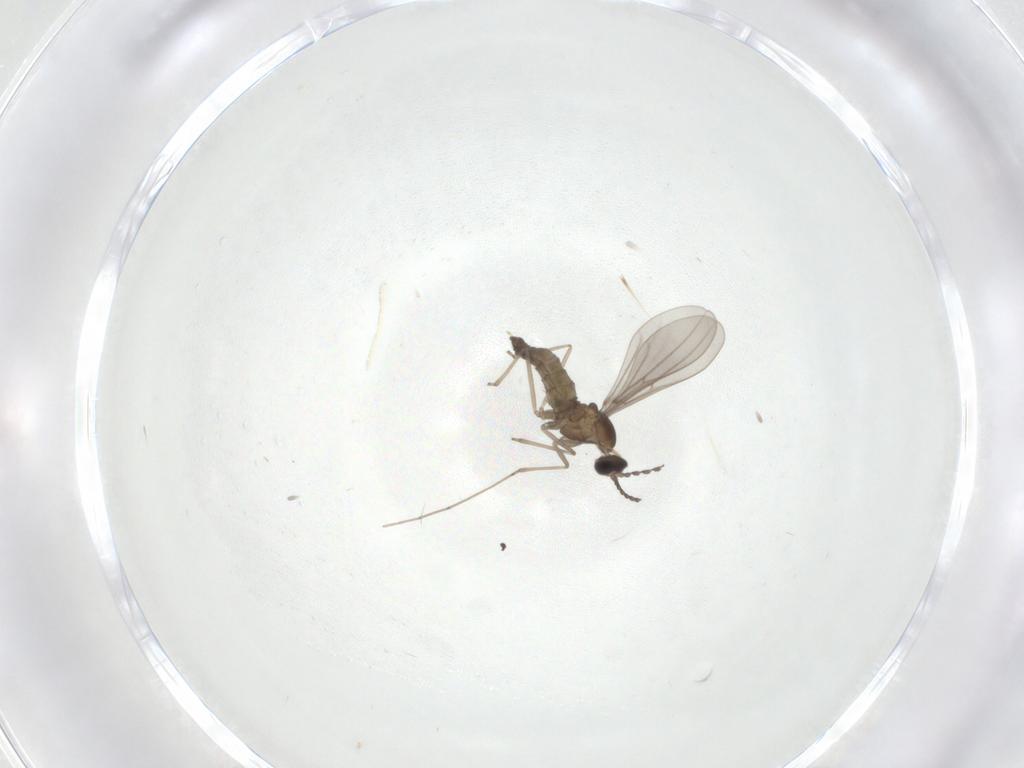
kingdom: Animalia
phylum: Arthropoda
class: Insecta
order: Diptera
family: Cecidomyiidae
